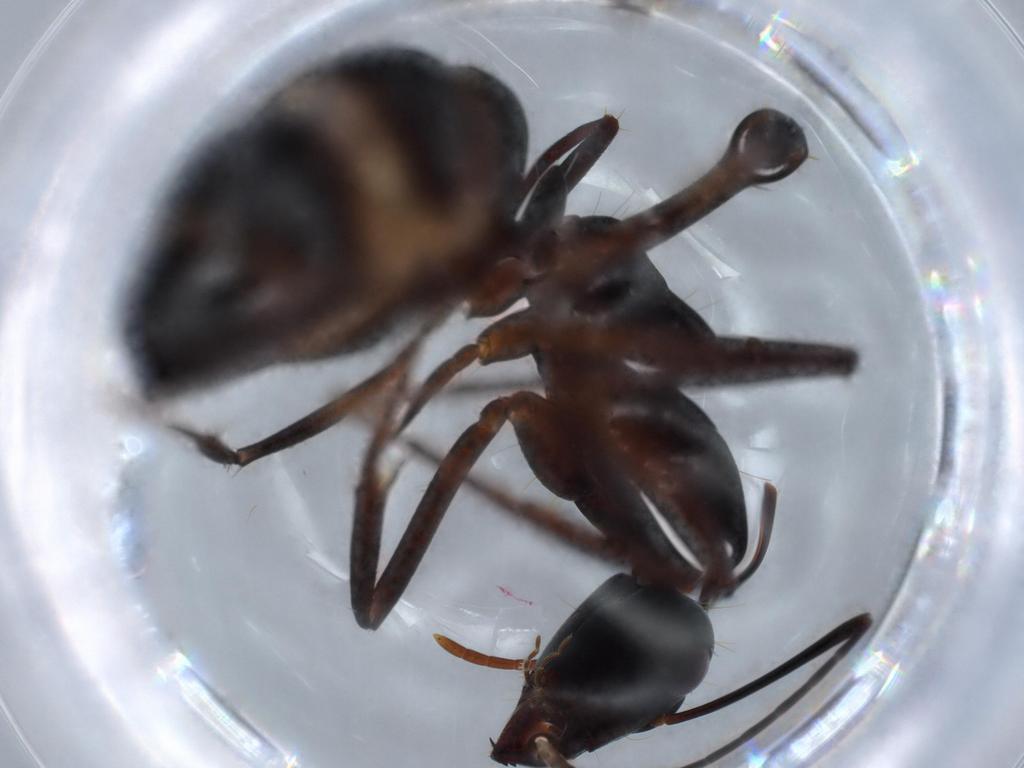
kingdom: Animalia
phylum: Arthropoda
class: Insecta
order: Hymenoptera
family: Formicidae
